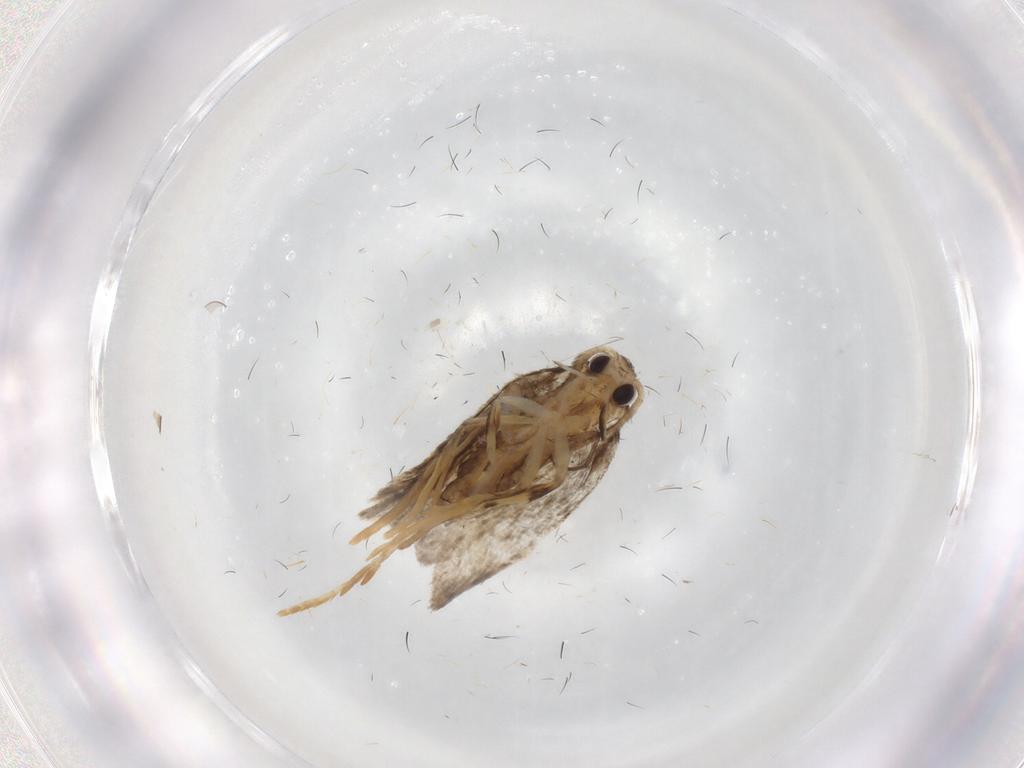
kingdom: Animalia
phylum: Arthropoda
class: Insecta
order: Lepidoptera
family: Psychidae
